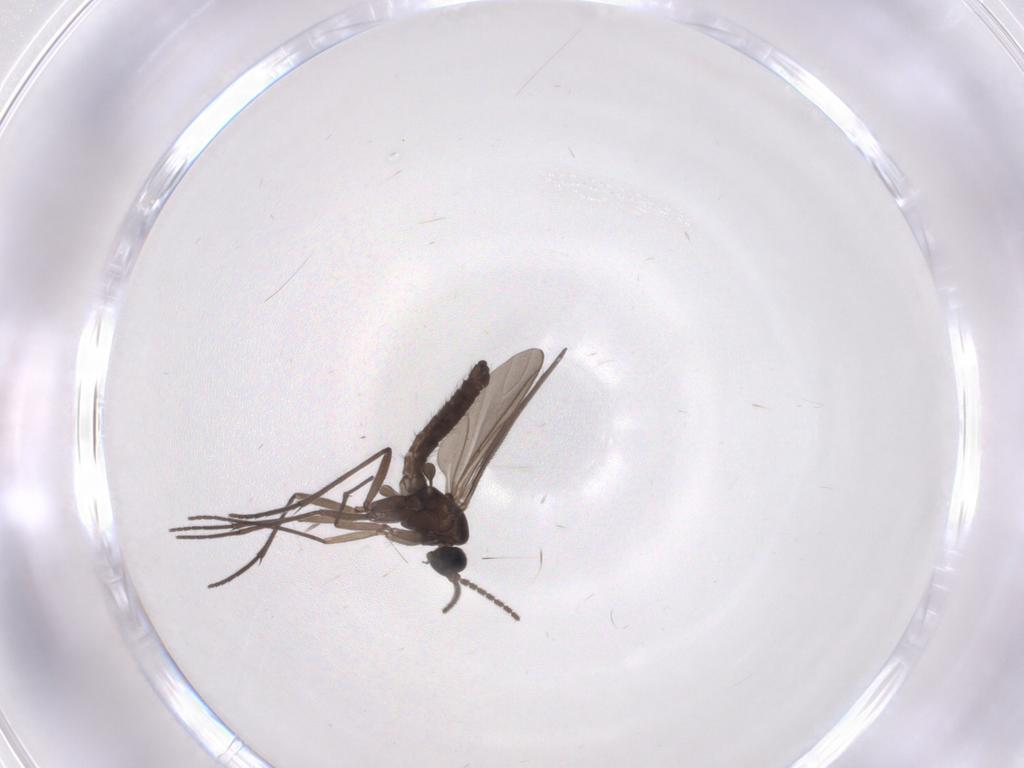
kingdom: Animalia
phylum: Arthropoda
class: Insecta
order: Diptera
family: Sciaridae
